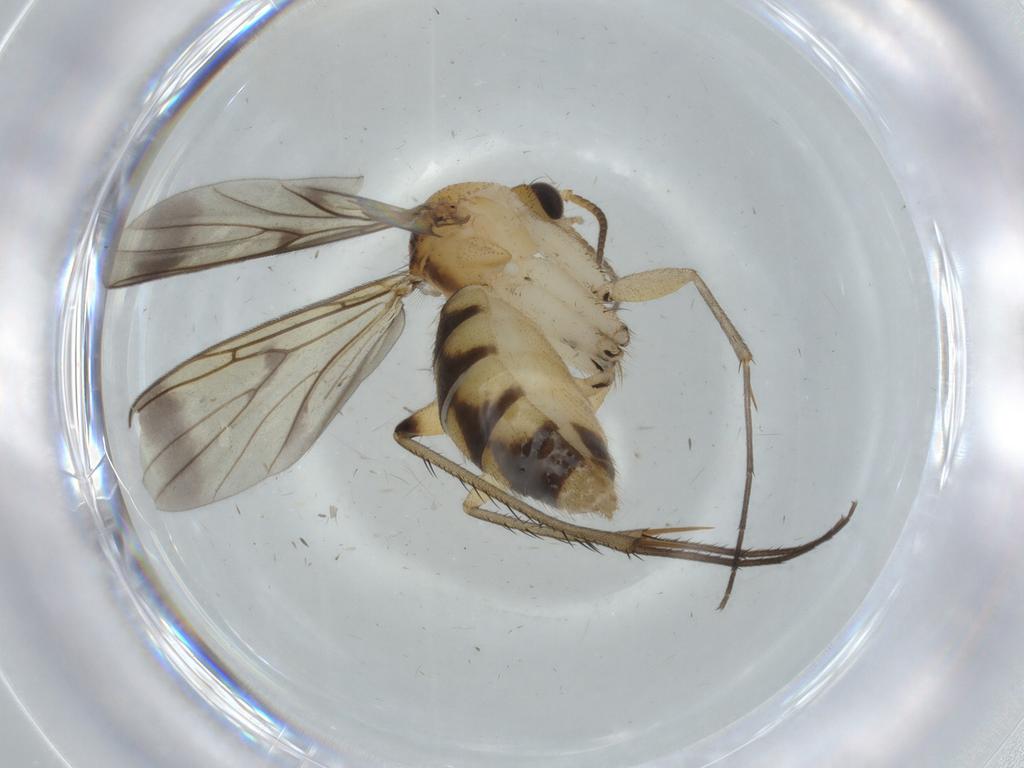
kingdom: Animalia
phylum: Arthropoda
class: Insecta
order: Diptera
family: Mycetophilidae
